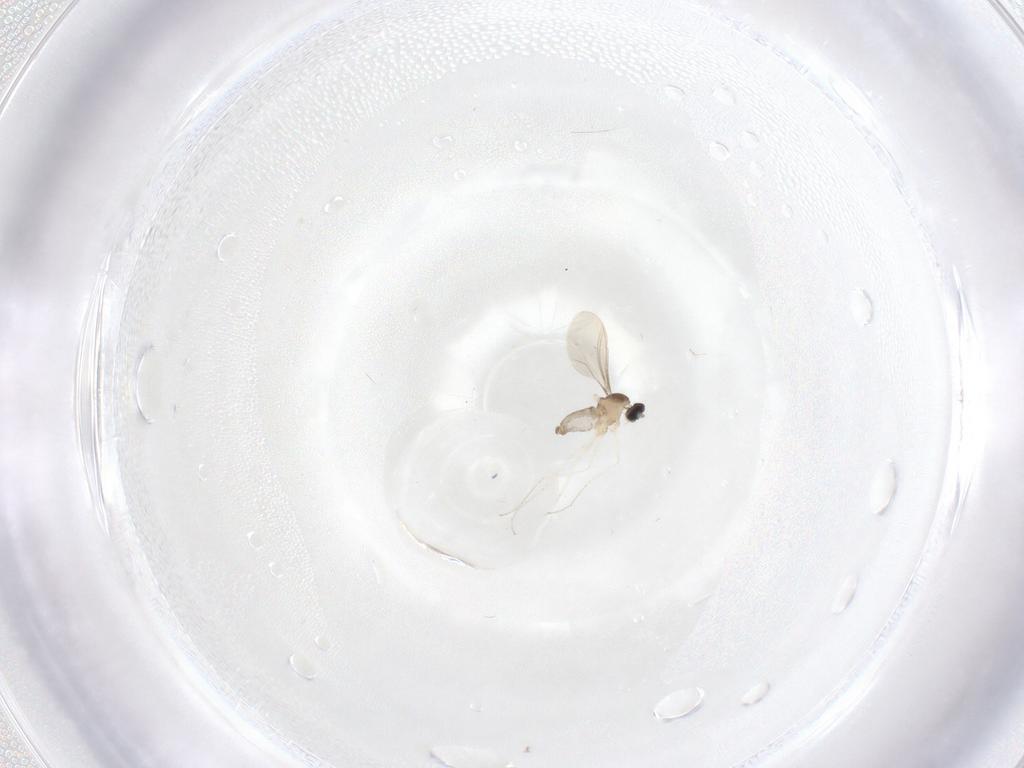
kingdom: Animalia
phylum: Arthropoda
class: Insecta
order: Diptera
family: Cecidomyiidae
